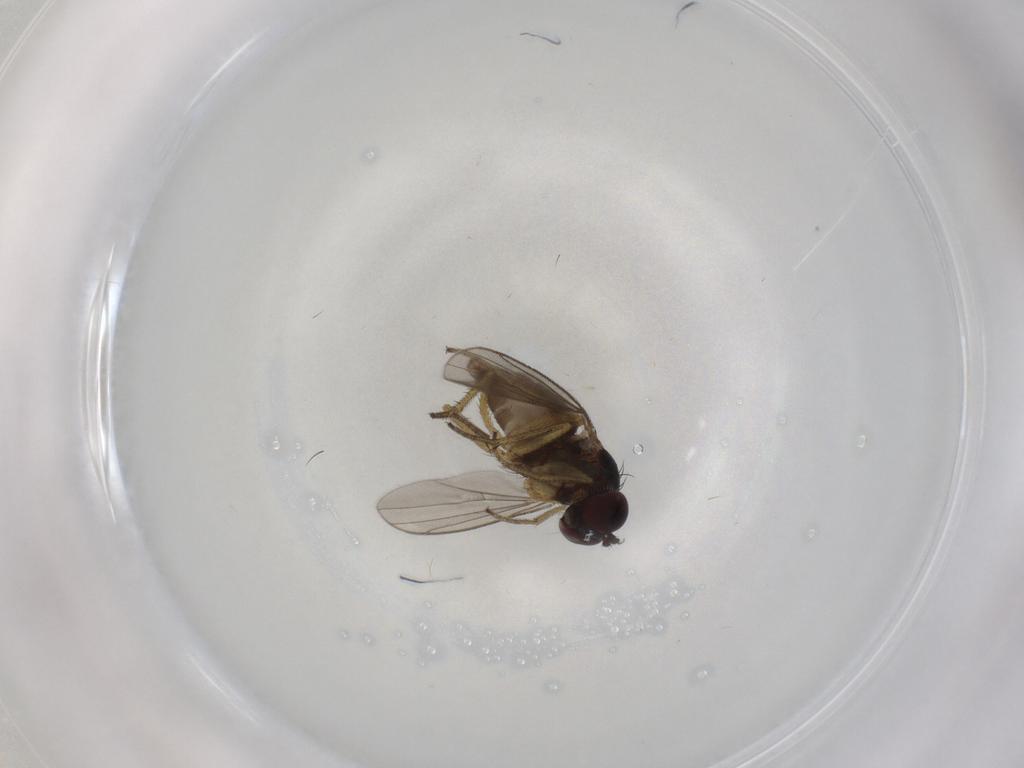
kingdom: Animalia
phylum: Arthropoda
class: Insecta
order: Diptera
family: Dolichopodidae
